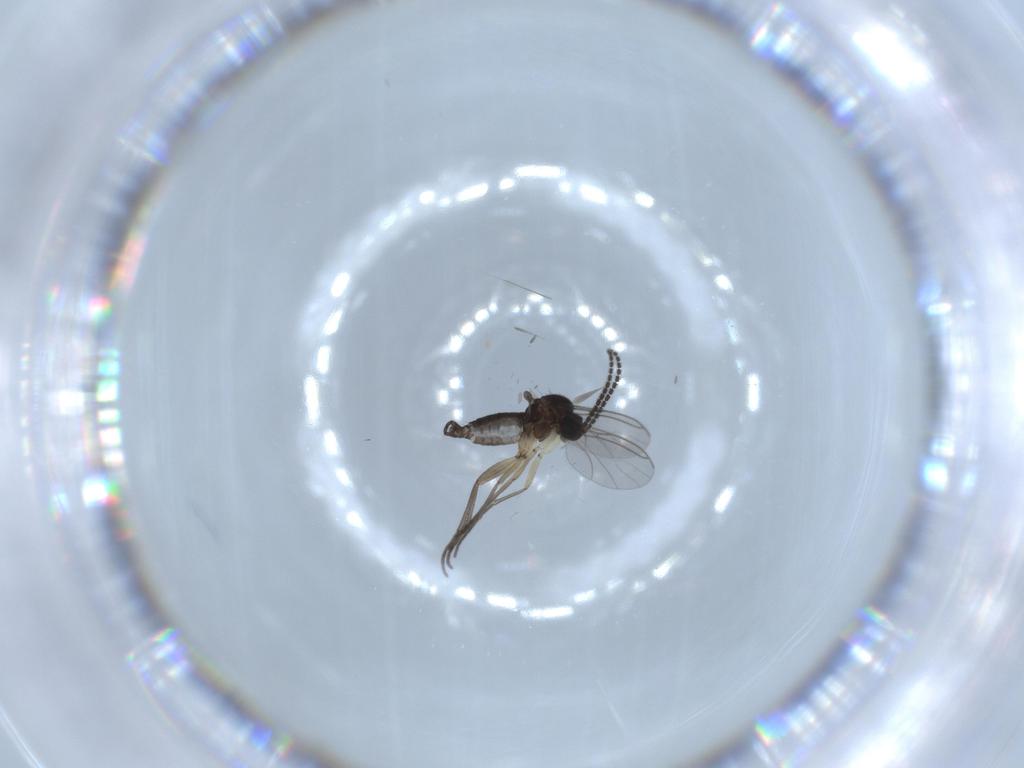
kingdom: Animalia
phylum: Arthropoda
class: Insecta
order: Diptera
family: Sciaridae
